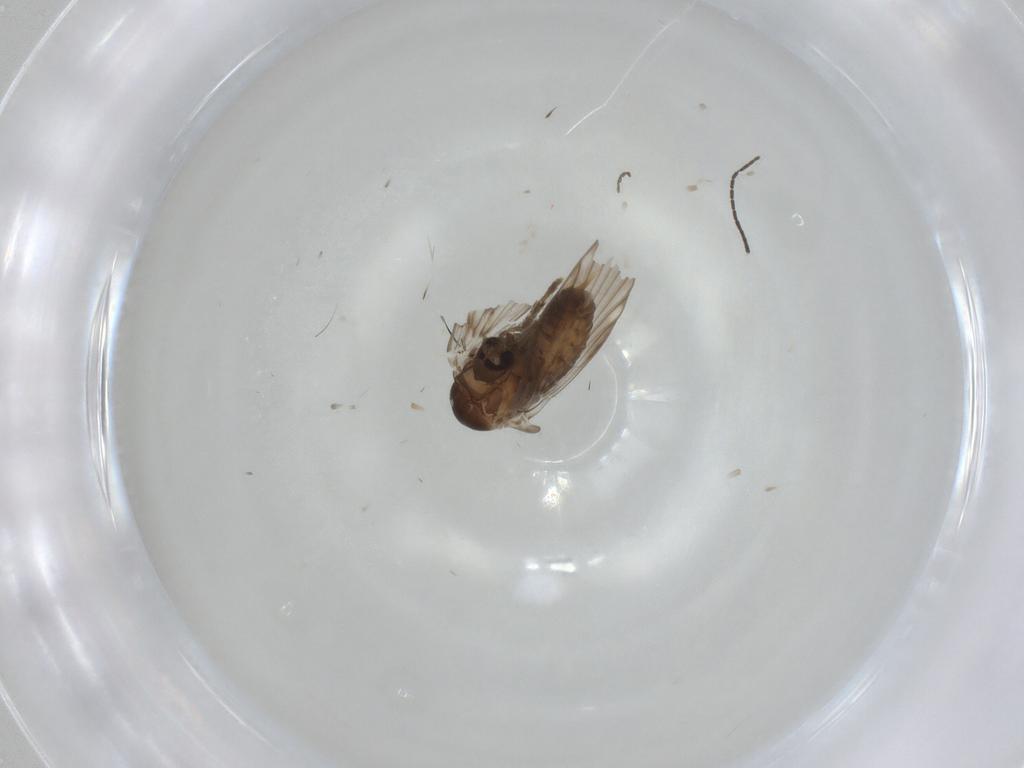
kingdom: Animalia
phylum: Arthropoda
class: Insecta
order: Diptera
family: Psychodidae
